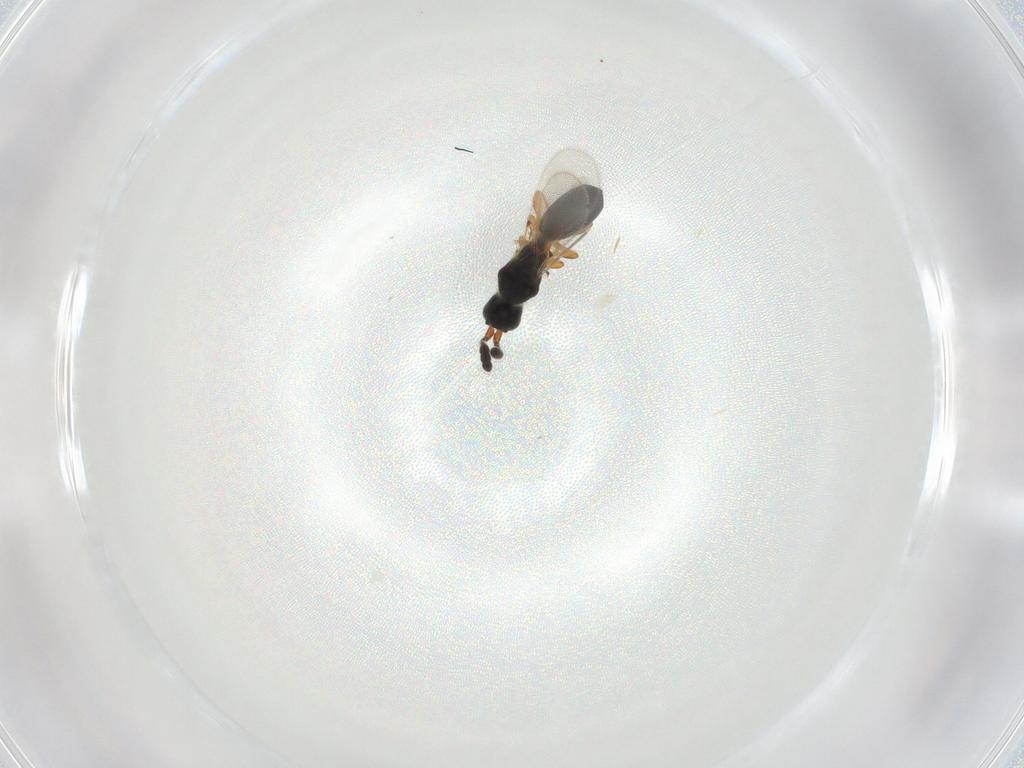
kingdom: Animalia
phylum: Arthropoda
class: Insecta
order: Hymenoptera
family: Diapriidae
